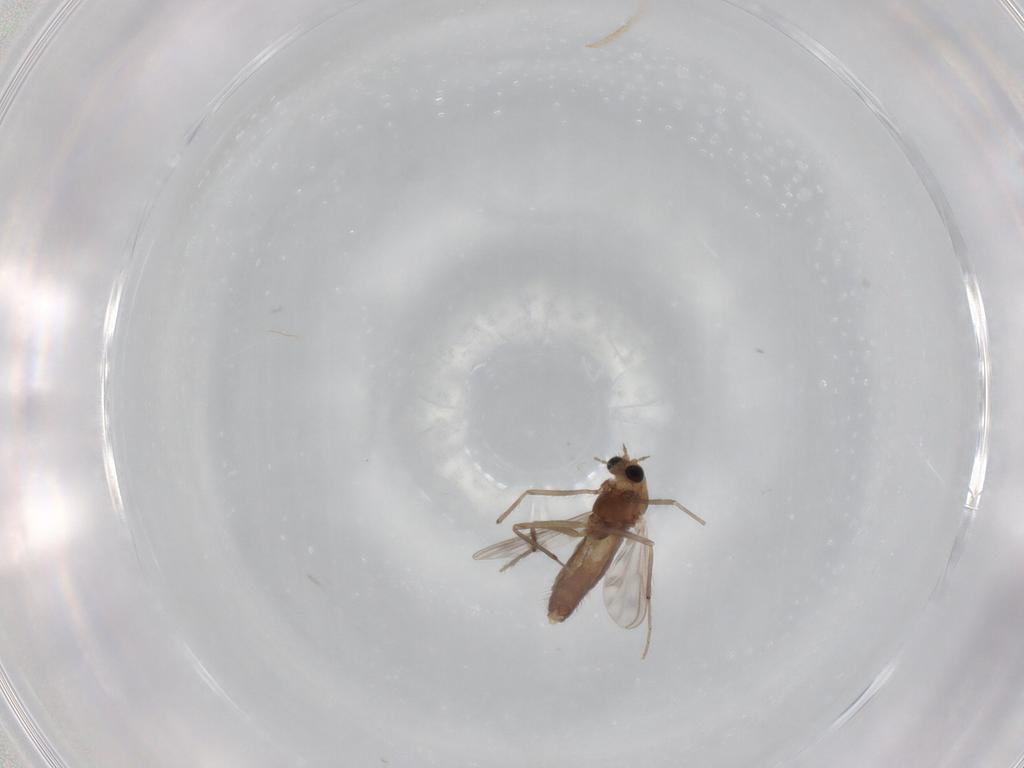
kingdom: Animalia
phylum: Arthropoda
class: Insecta
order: Diptera
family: Chironomidae
